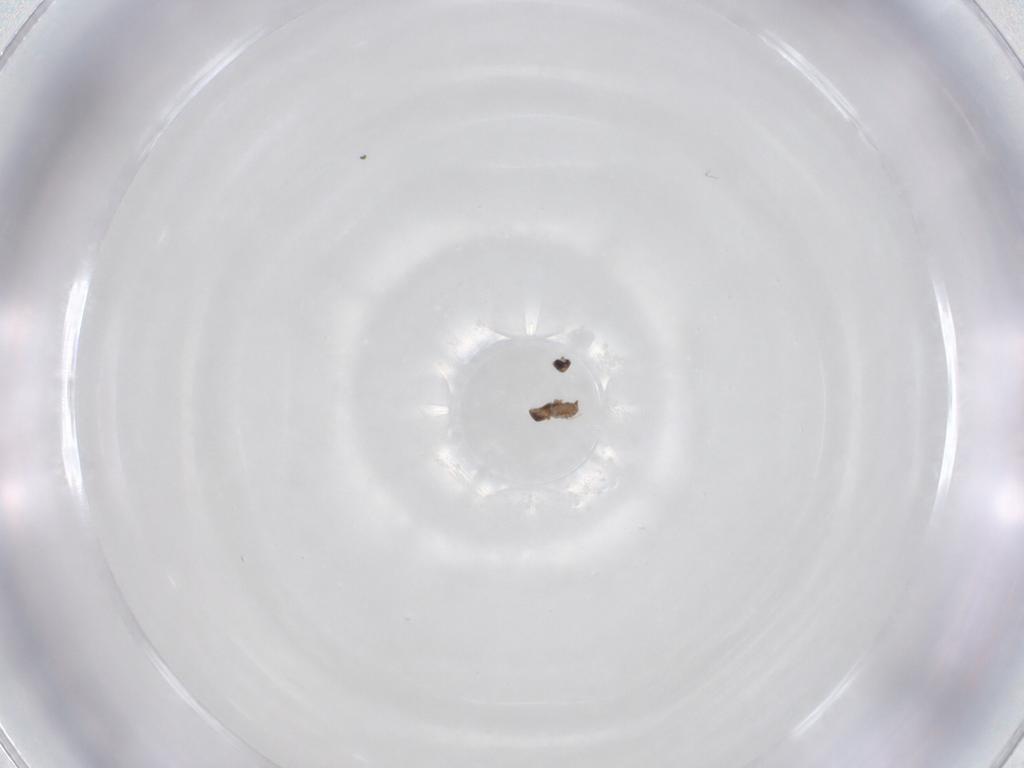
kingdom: Animalia
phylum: Arthropoda
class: Insecta
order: Diptera
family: Cecidomyiidae
